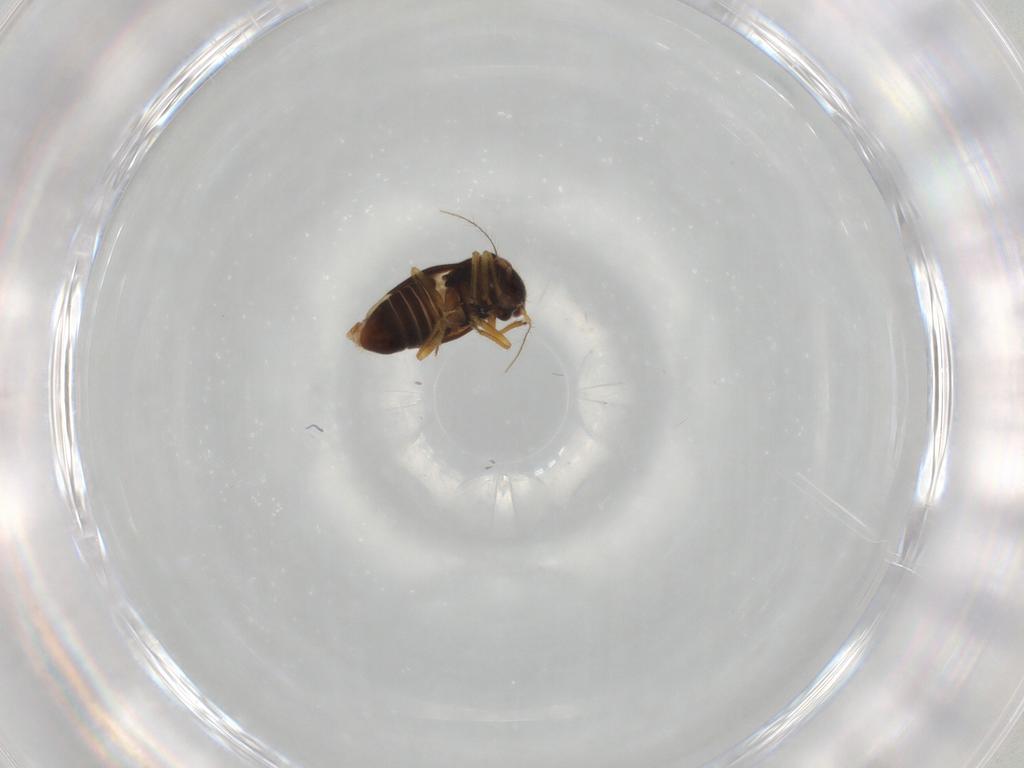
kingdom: Animalia
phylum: Arthropoda
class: Insecta
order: Hemiptera
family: Schizopteridae
